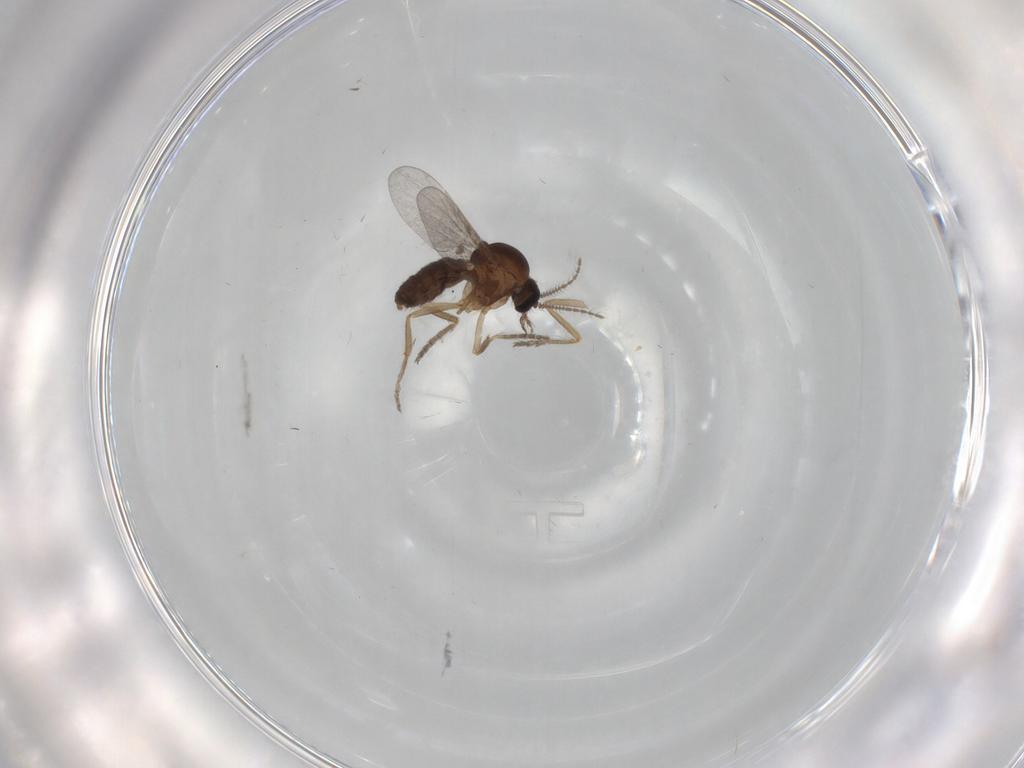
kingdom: Animalia
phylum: Arthropoda
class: Insecta
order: Diptera
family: Ceratopogonidae
